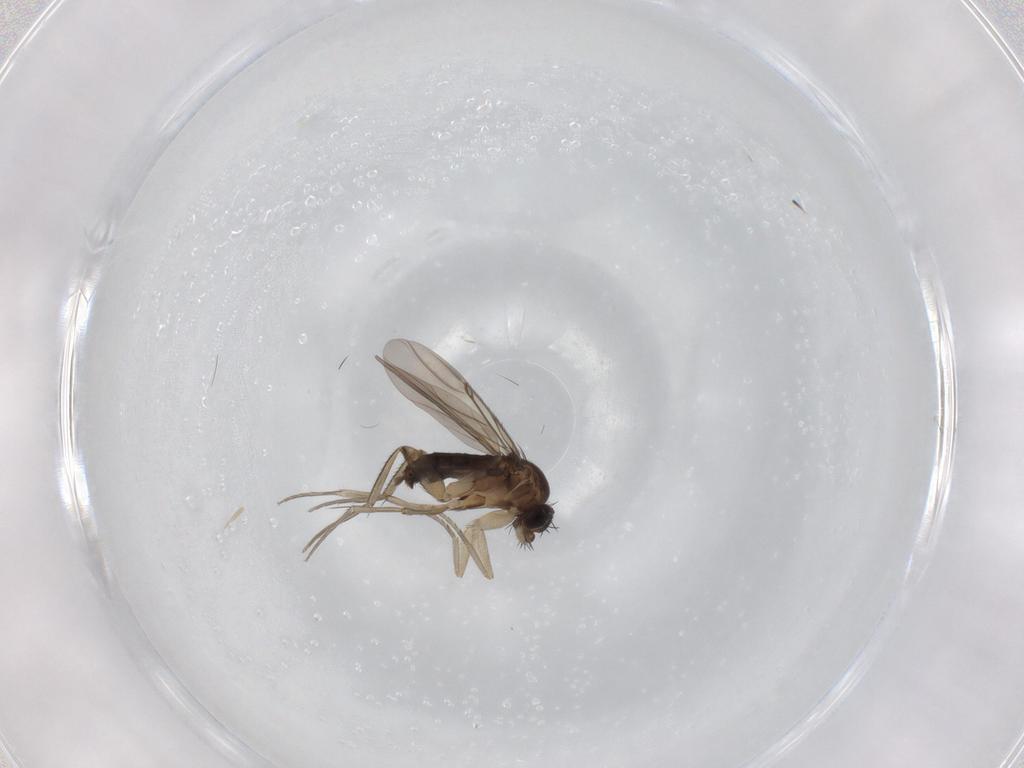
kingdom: Animalia
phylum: Arthropoda
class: Insecta
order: Diptera
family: Phoridae
